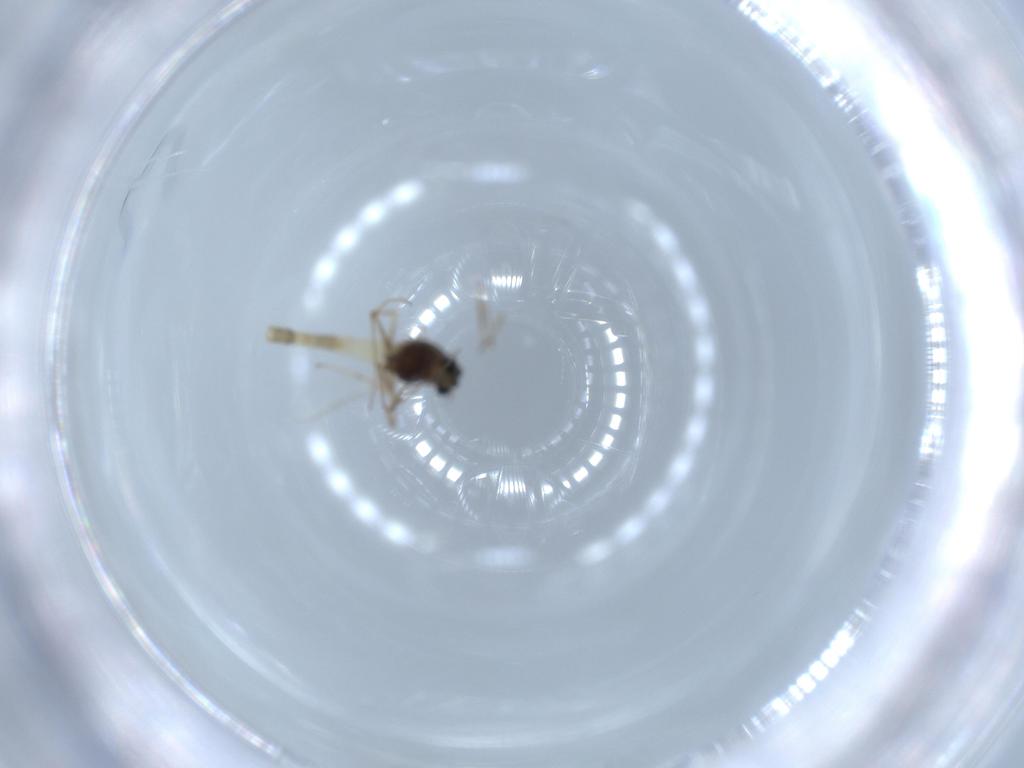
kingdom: Animalia
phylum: Arthropoda
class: Insecta
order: Diptera
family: Chironomidae
